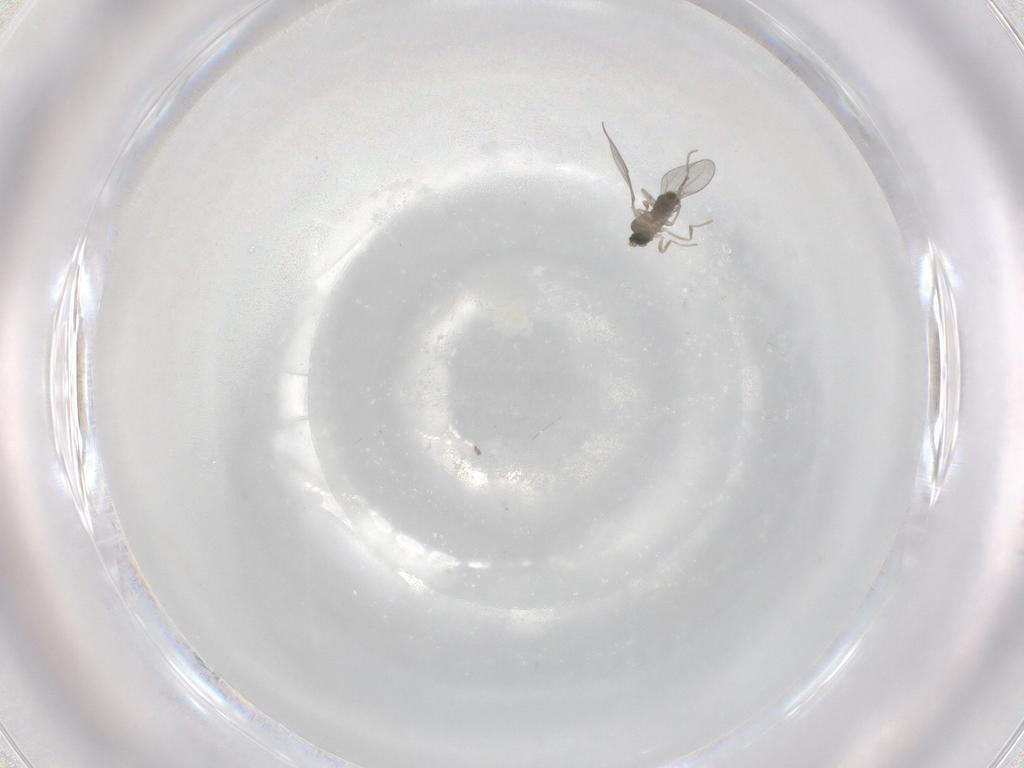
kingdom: Animalia
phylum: Arthropoda
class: Insecta
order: Diptera
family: Cecidomyiidae
